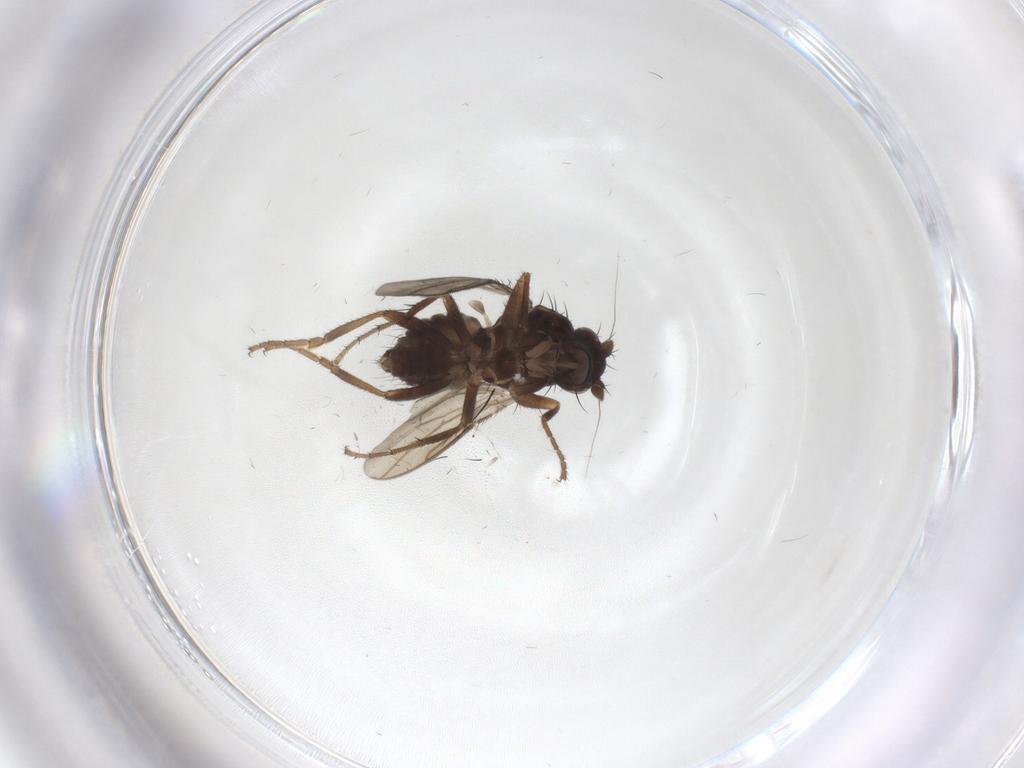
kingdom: Animalia
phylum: Arthropoda
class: Insecta
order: Diptera
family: Sphaeroceridae
